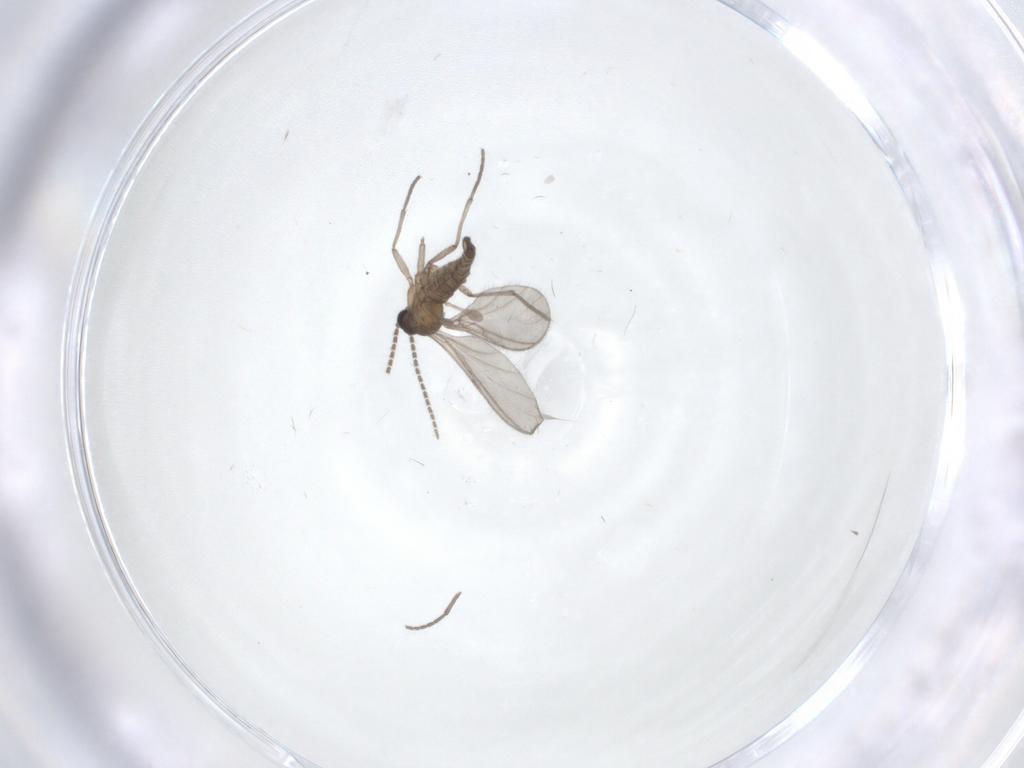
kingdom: Animalia
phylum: Arthropoda
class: Insecta
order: Diptera
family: Sciaridae
